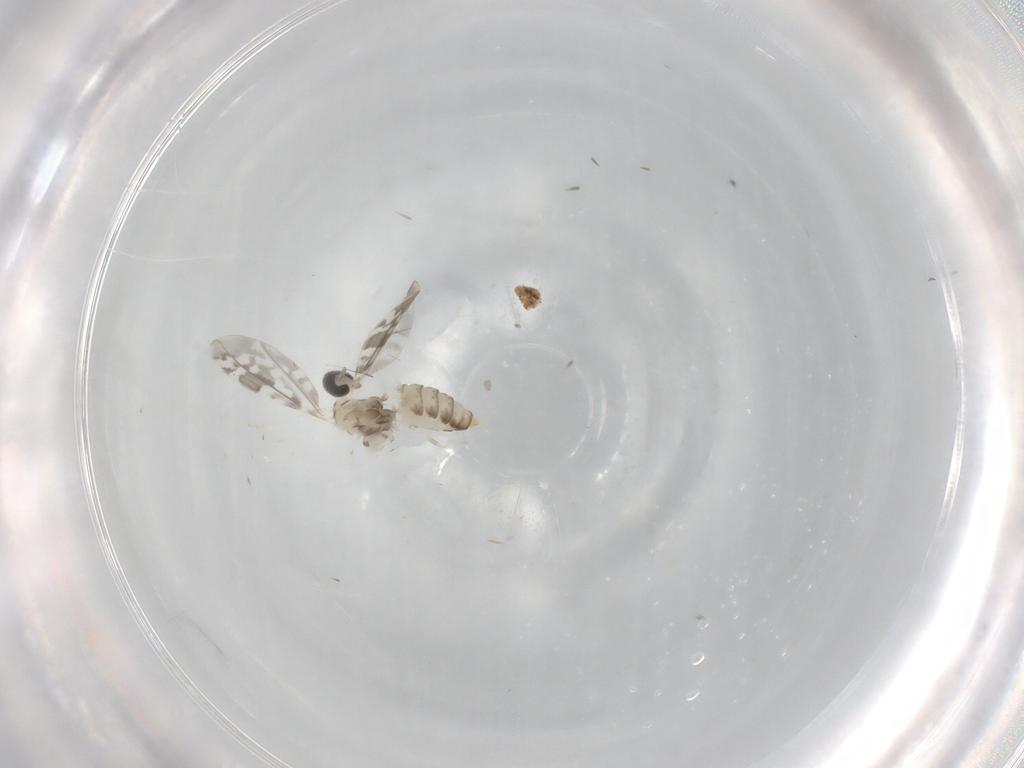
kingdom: Animalia
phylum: Arthropoda
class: Insecta
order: Diptera
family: Cecidomyiidae
